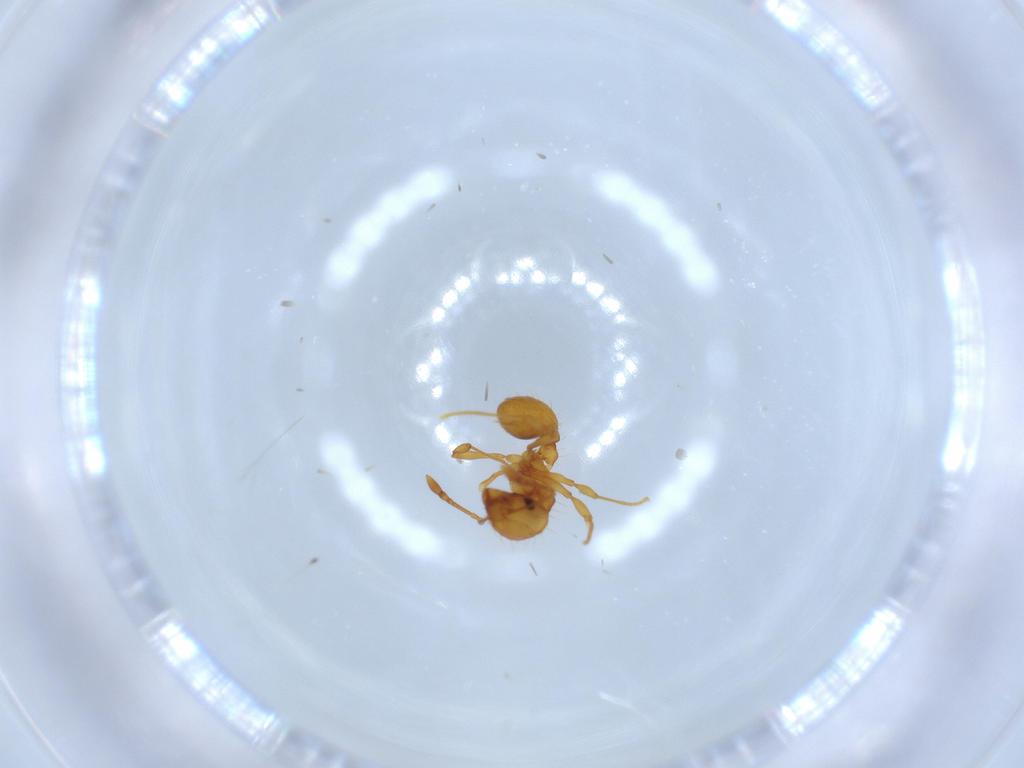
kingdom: Animalia
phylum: Arthropoda
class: Insecta
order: Hymenoptera
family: Formicidae
